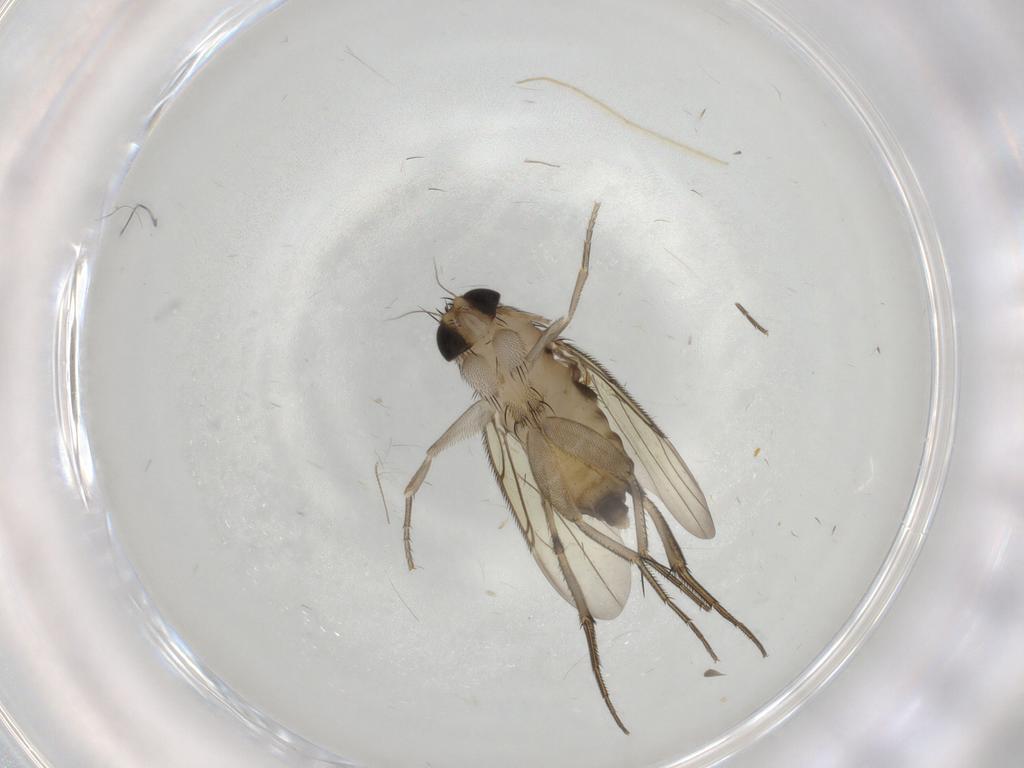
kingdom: Animalia
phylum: Arthropoda
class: Insecta
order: Diptera
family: Phoridae
